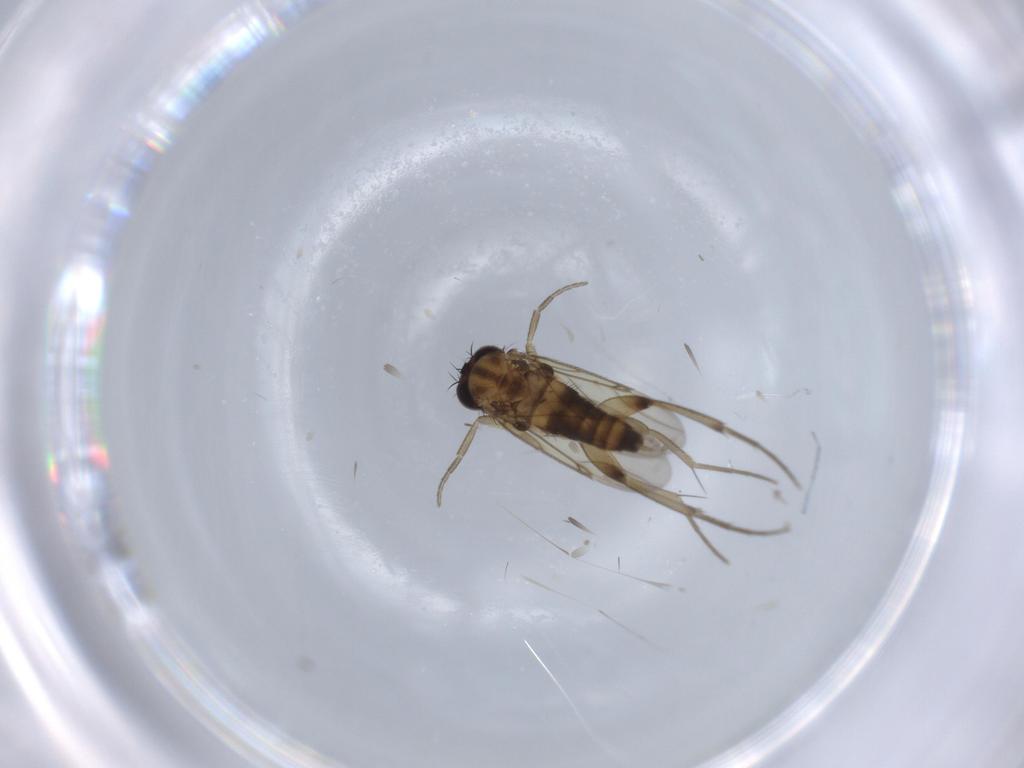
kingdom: Animalia
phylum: Arthropoda
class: Insecta
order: Diptera
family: Phoridae
